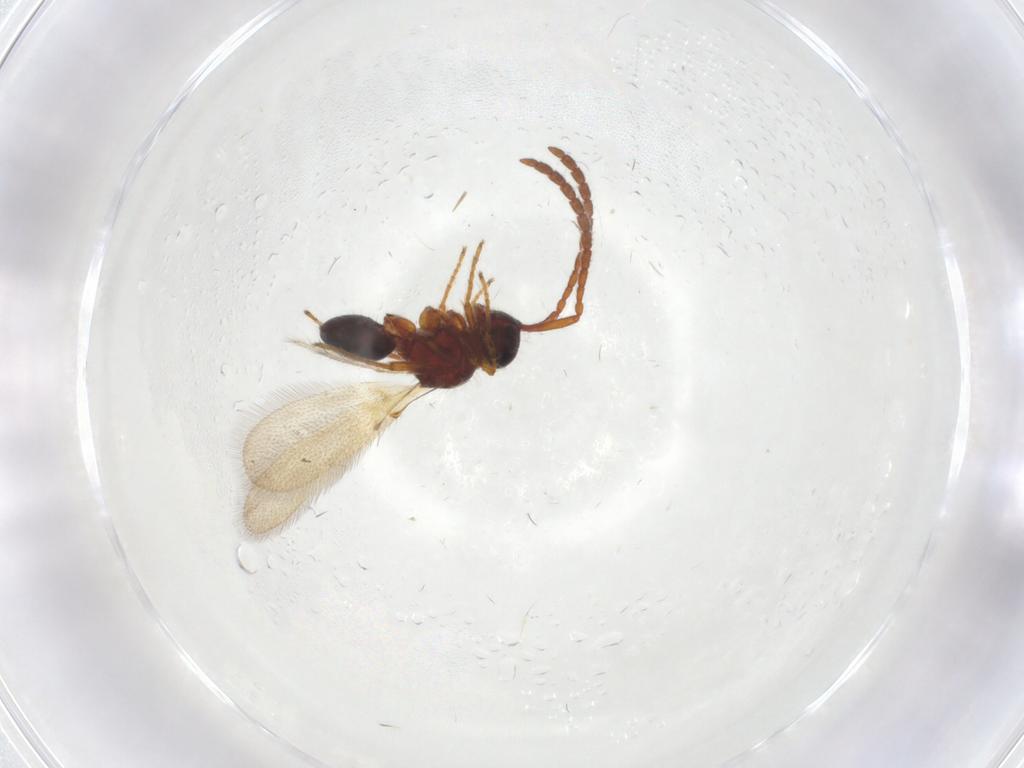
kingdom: Animalia
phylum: Arthropoda
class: Insecta
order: Hymenoptera
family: Diapriidae
